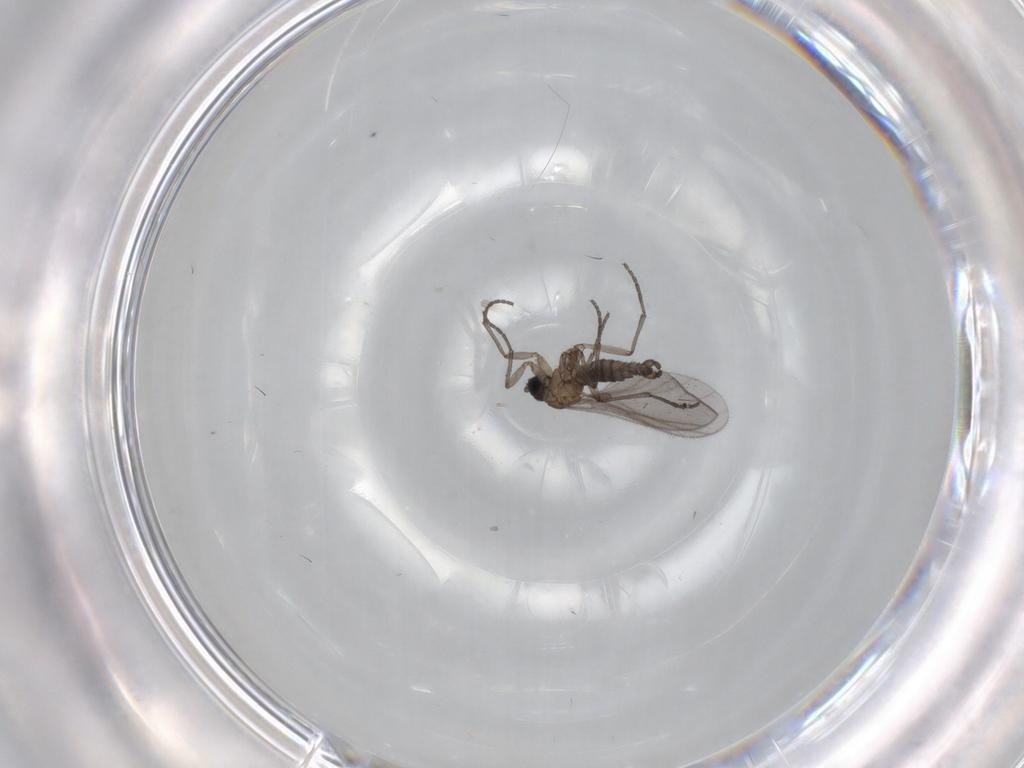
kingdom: Animalia
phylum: Arthropoda
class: Insecta
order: Diptera
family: Sciaridae
